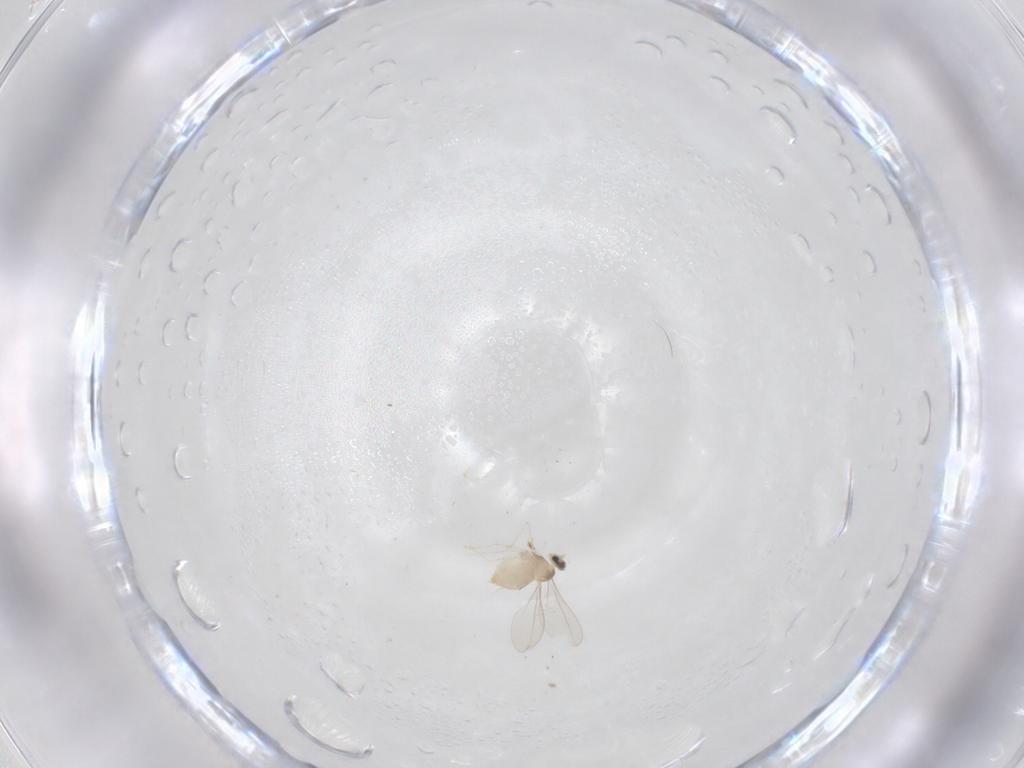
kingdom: Animalia
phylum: Arthropoda
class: Insecta
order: Diptera
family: Cecidomyiidae
